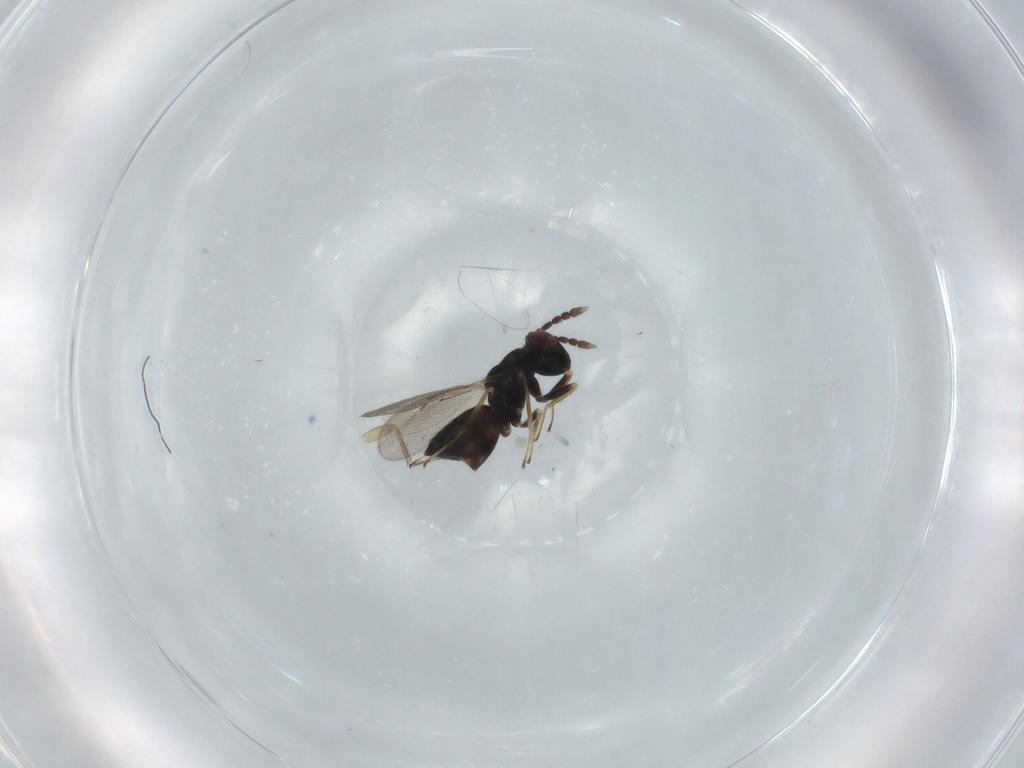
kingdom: Animalia
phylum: Arthropoda
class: Insecta
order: Hymenoptera
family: Eulophidae
